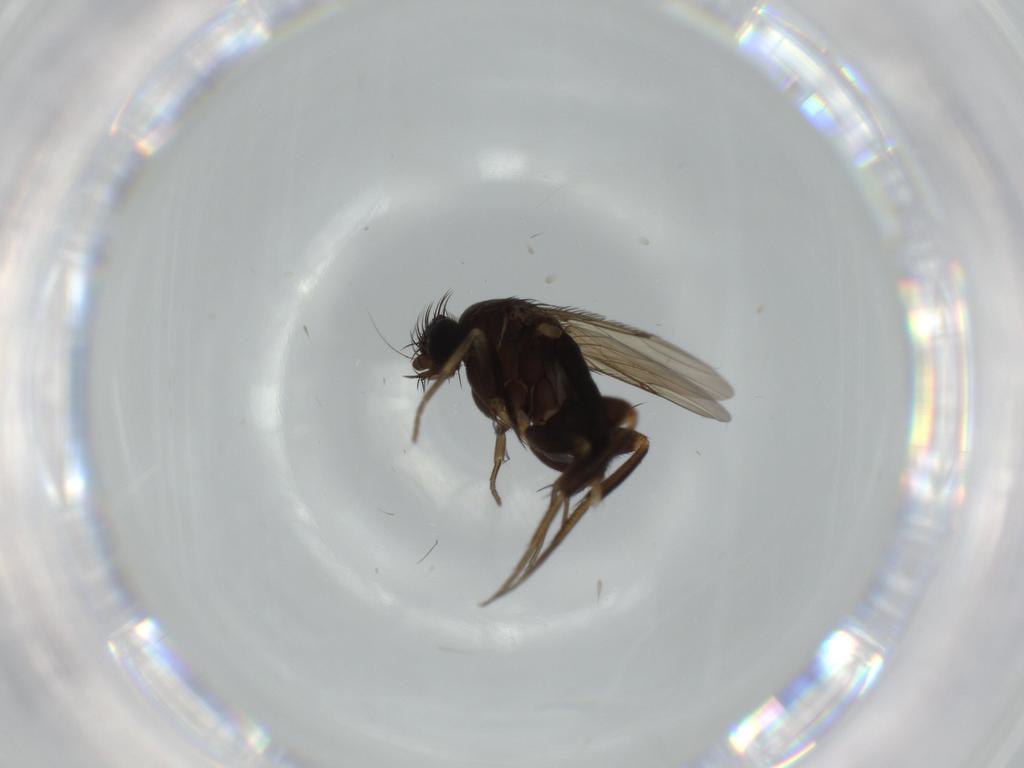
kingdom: Animalia
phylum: Arthropoda
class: Insecta
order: Diptera
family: Phoridae
